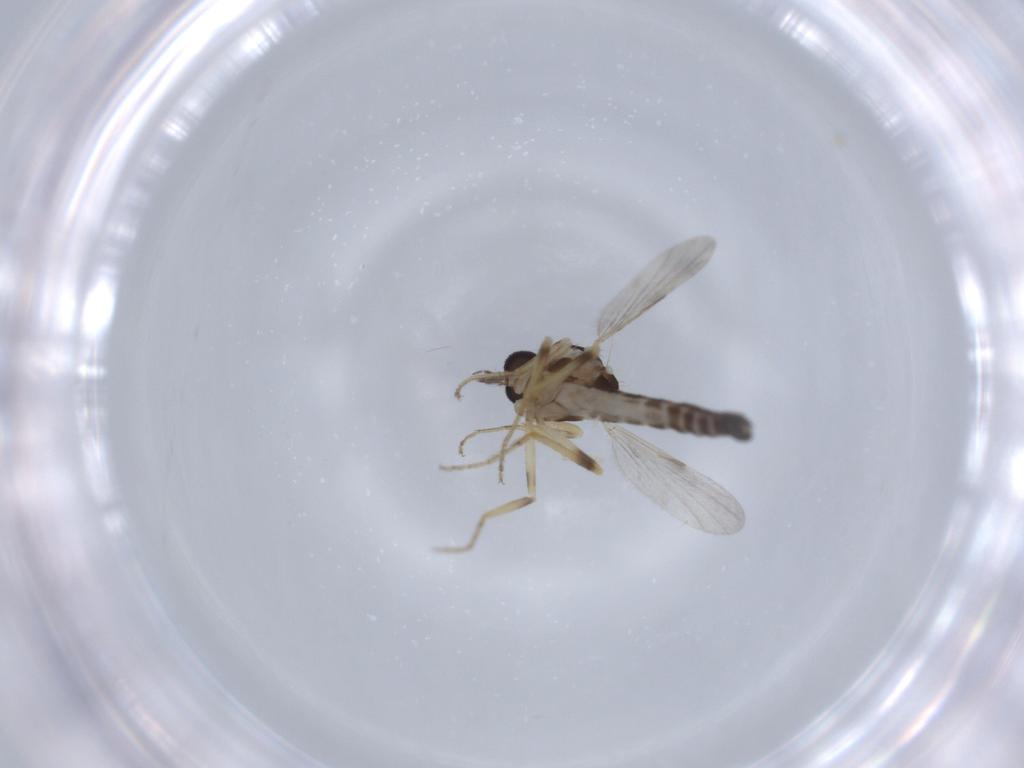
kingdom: Animalia
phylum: Arthropoda
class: Insecta
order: Diptera
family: Ceratopogonidae
